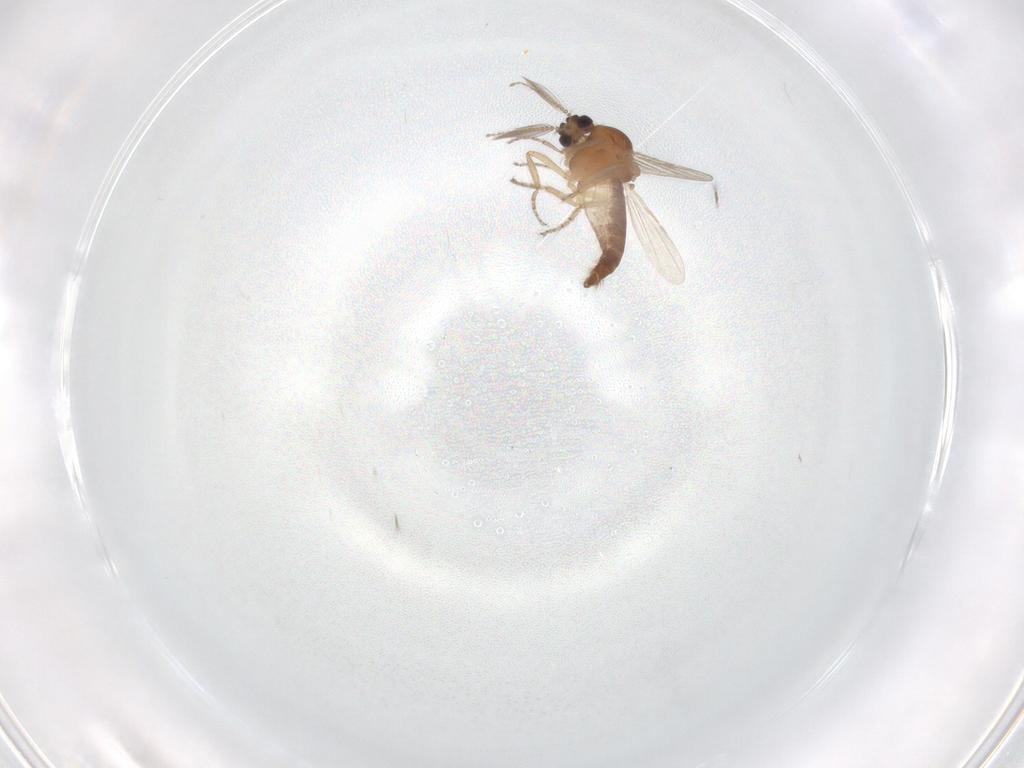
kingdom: Animalia
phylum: Arthropoda
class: Insecta
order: Diptera
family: Ceratopogonidae
